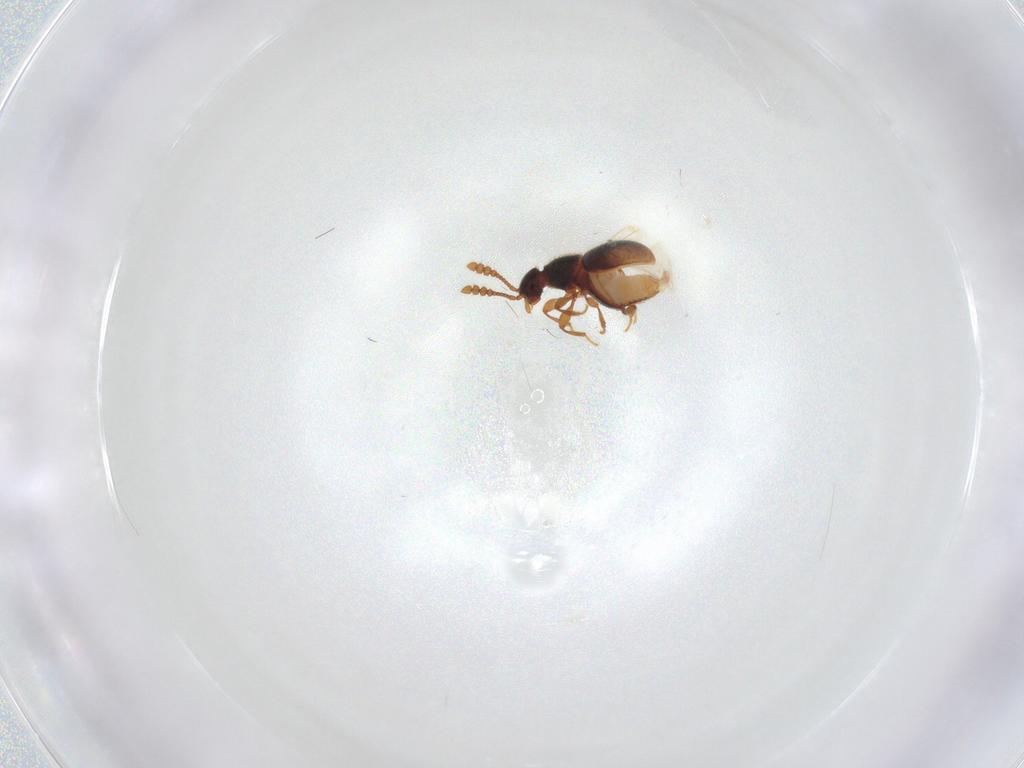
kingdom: Animalia
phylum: Arthropoda
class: Insecta
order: Coleoptera
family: Staphylinidae
